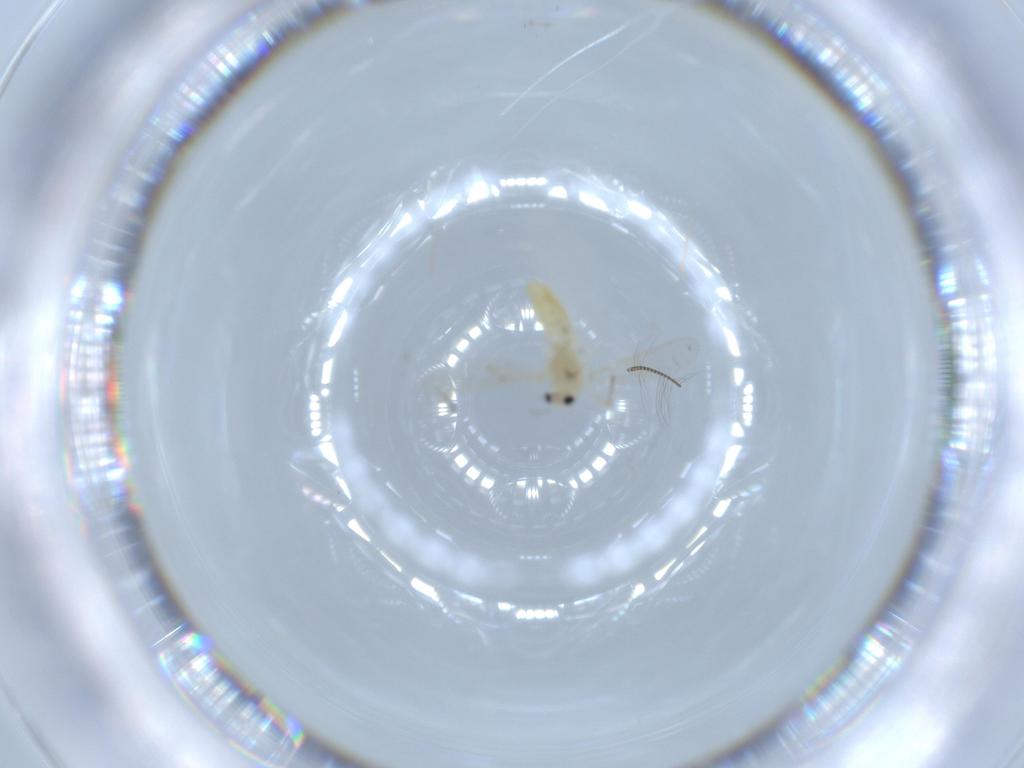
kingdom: Animalia
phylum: Arthropoda
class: Insecta
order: Diptera
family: Chironomidae
